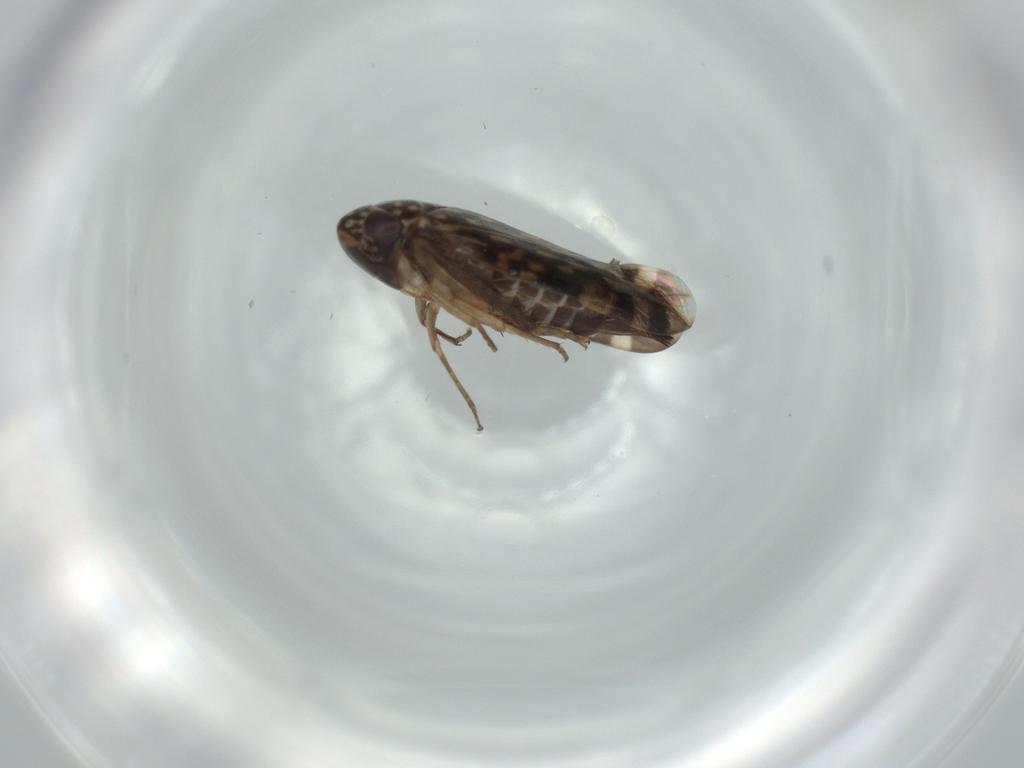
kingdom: Animalia
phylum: Arthropoda
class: Insecta
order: Hemiptera
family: Cicadellidae
